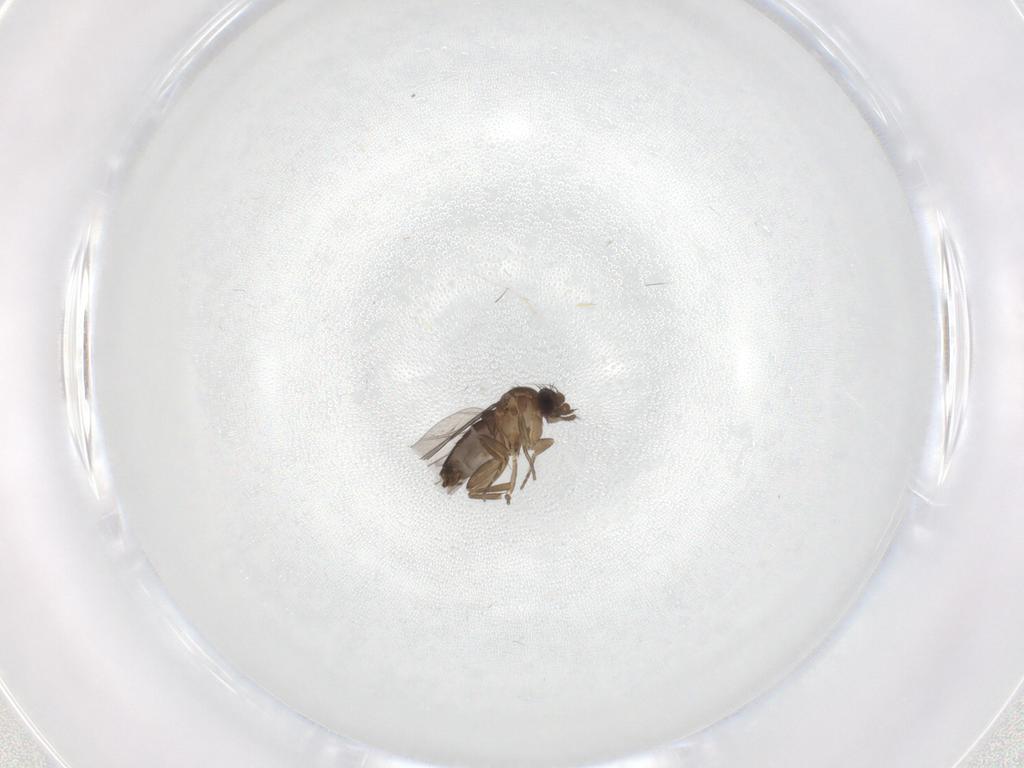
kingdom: Animalia
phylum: Arthropoda
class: Insecta
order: Diptera
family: Phoridae
